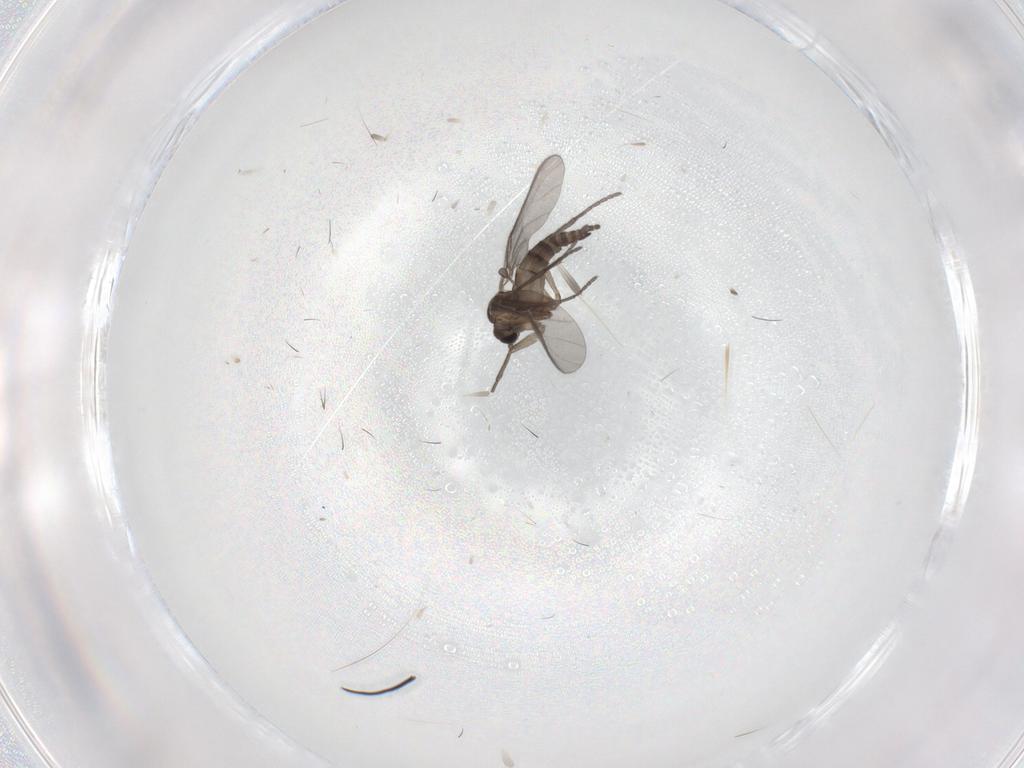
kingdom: Animalia
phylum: Arthropoda
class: Insecta
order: Diptera
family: Sciaridae
